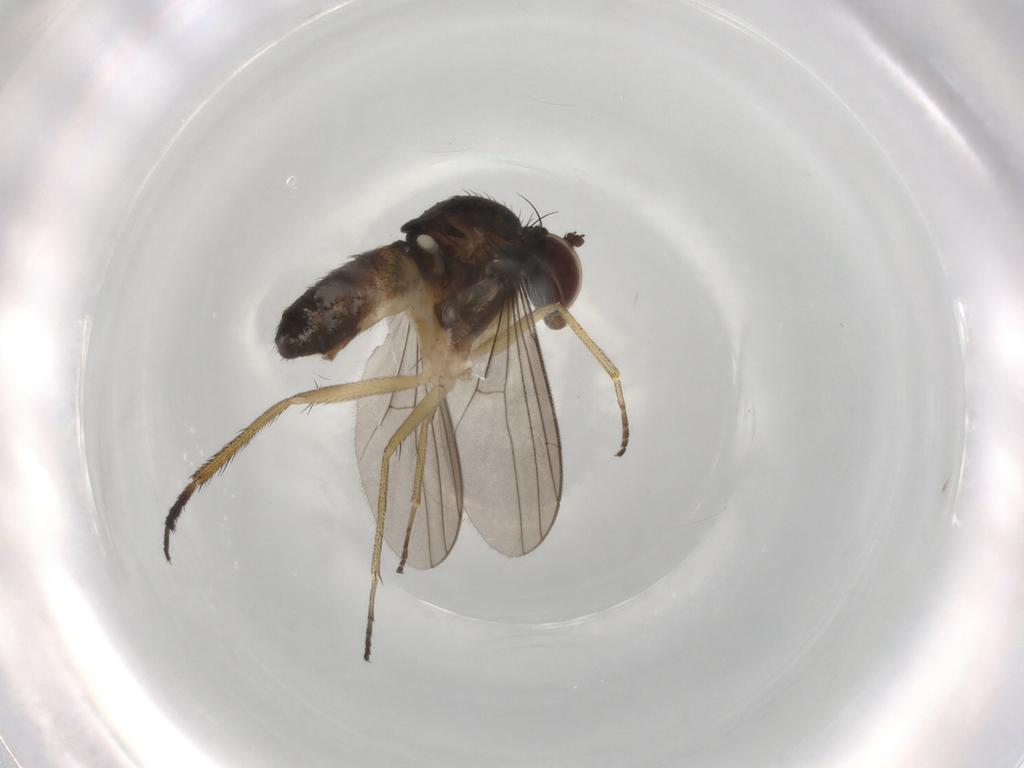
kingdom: Animalia
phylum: Arthropoda
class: Insecta
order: Diptera
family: Dolichopodidae
